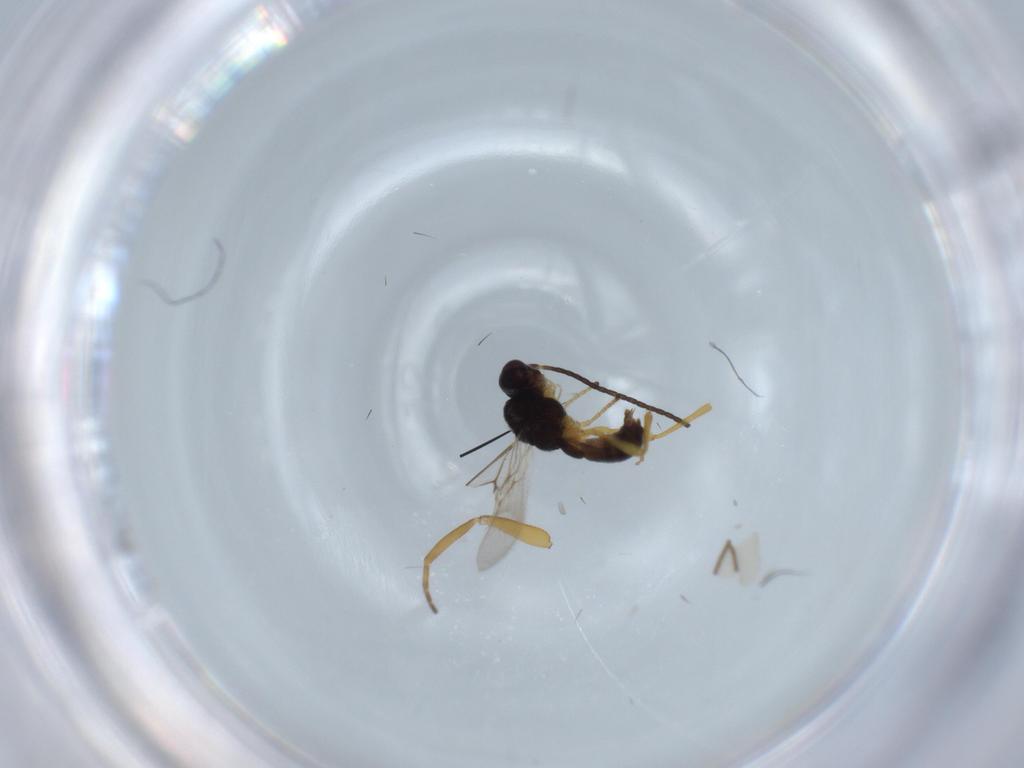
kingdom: Animalia
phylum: Arthropoda
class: Insecta
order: Hymenoptera
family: Braconidae
